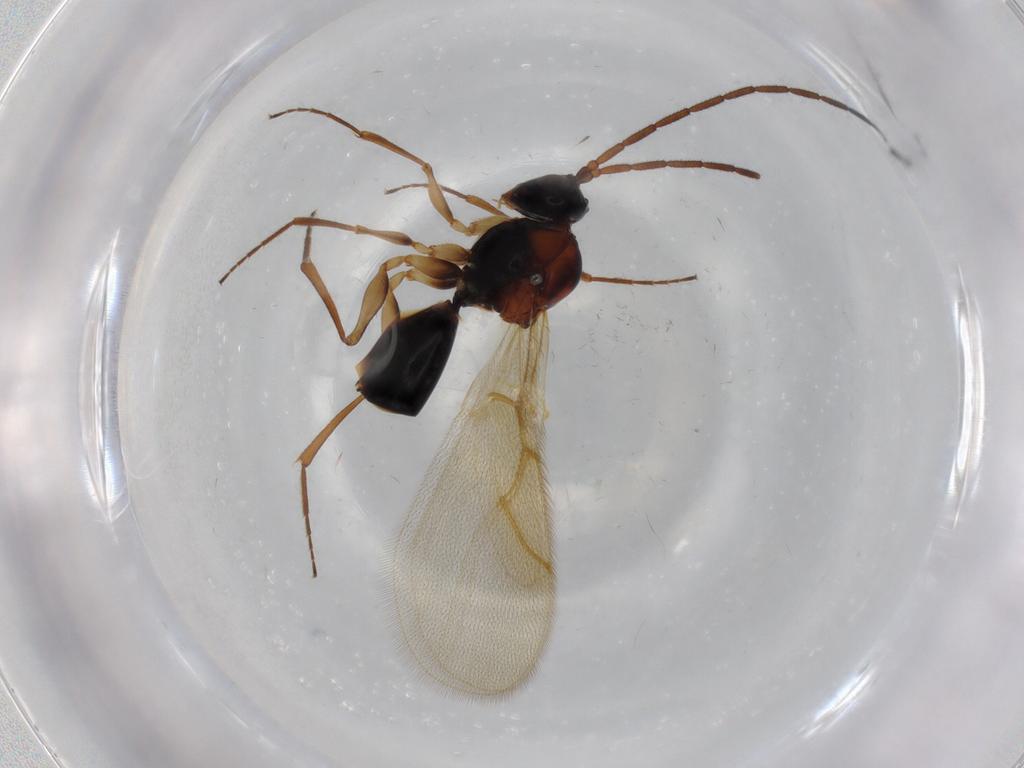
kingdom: Animalia
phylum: Arthropoda
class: Insecta
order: Hymenoptera
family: Figitidae
